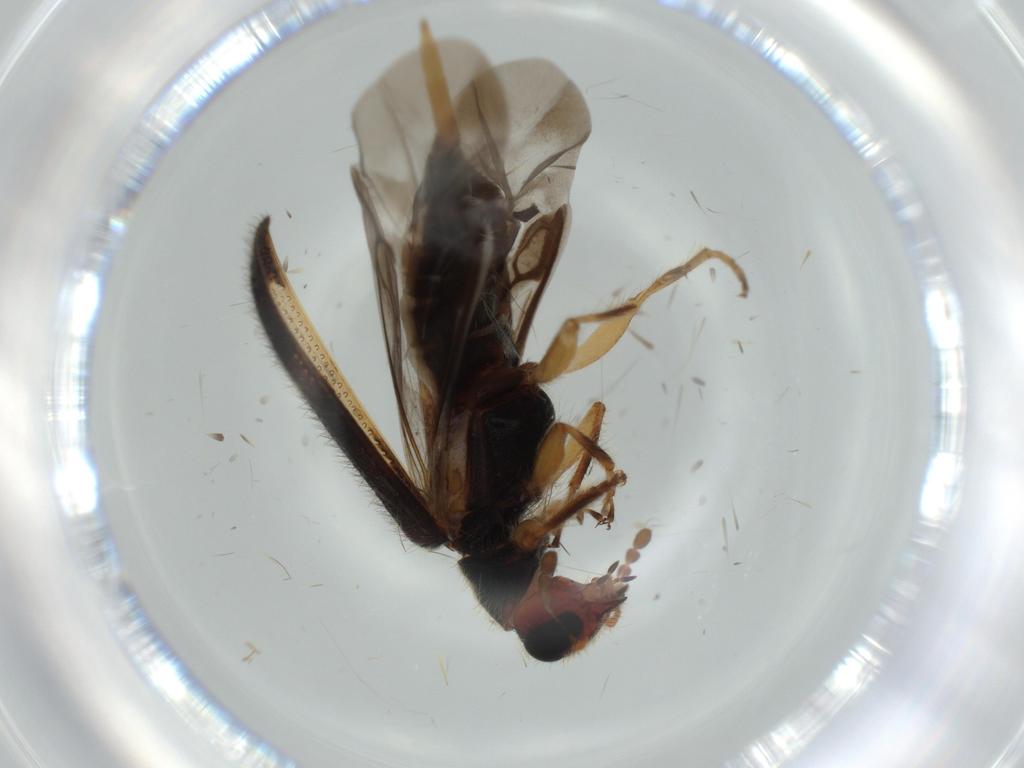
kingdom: Animalia
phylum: Arthropoda
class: Insecta
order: Coleoptera
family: Cleridae
